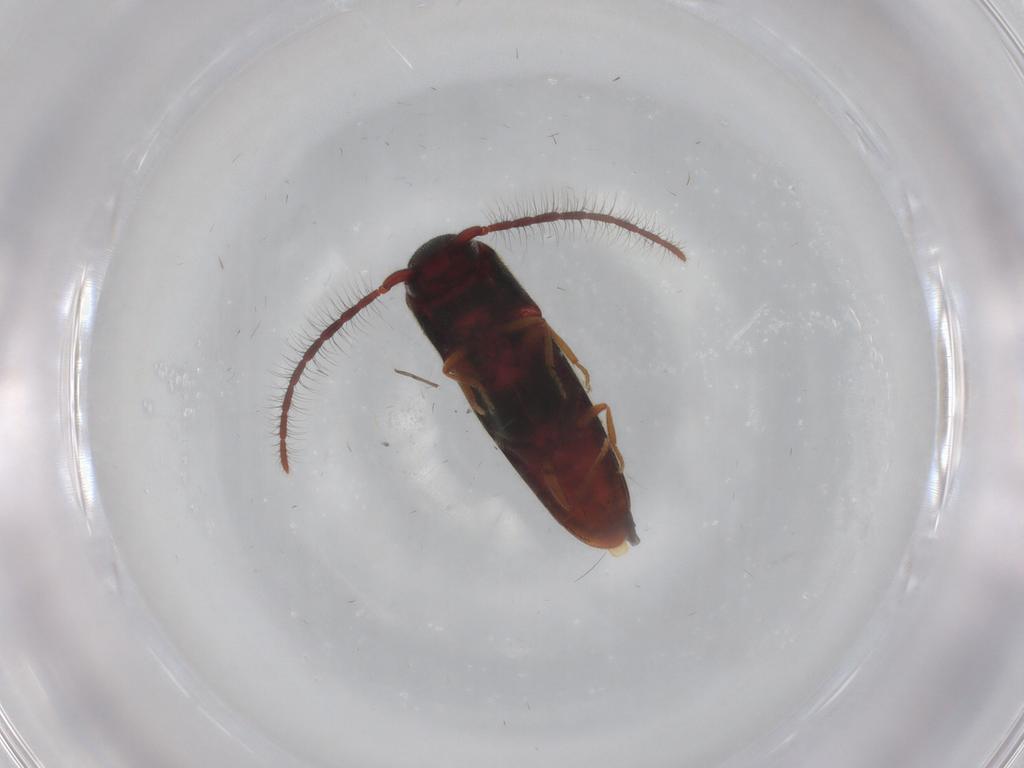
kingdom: Animalia
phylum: Arthropoda
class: Insecta
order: Coleoptera
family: Eucnemidae
